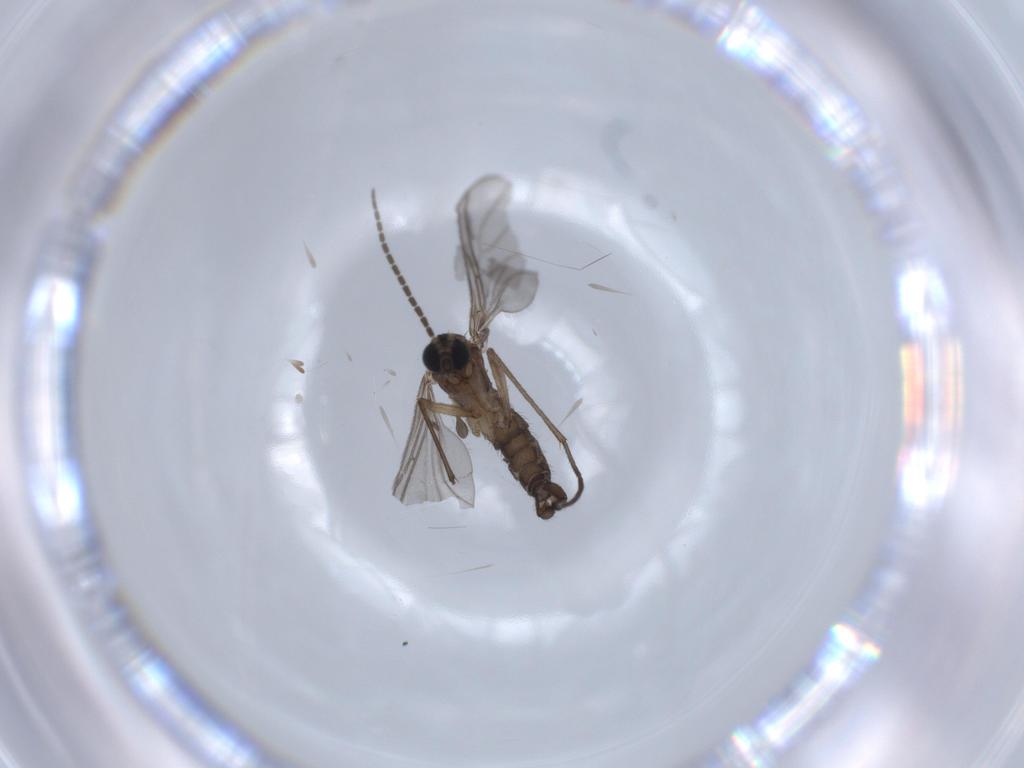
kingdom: Animalia
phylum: Arthropoda
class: Insecta
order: Diptera
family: Sciaridae
